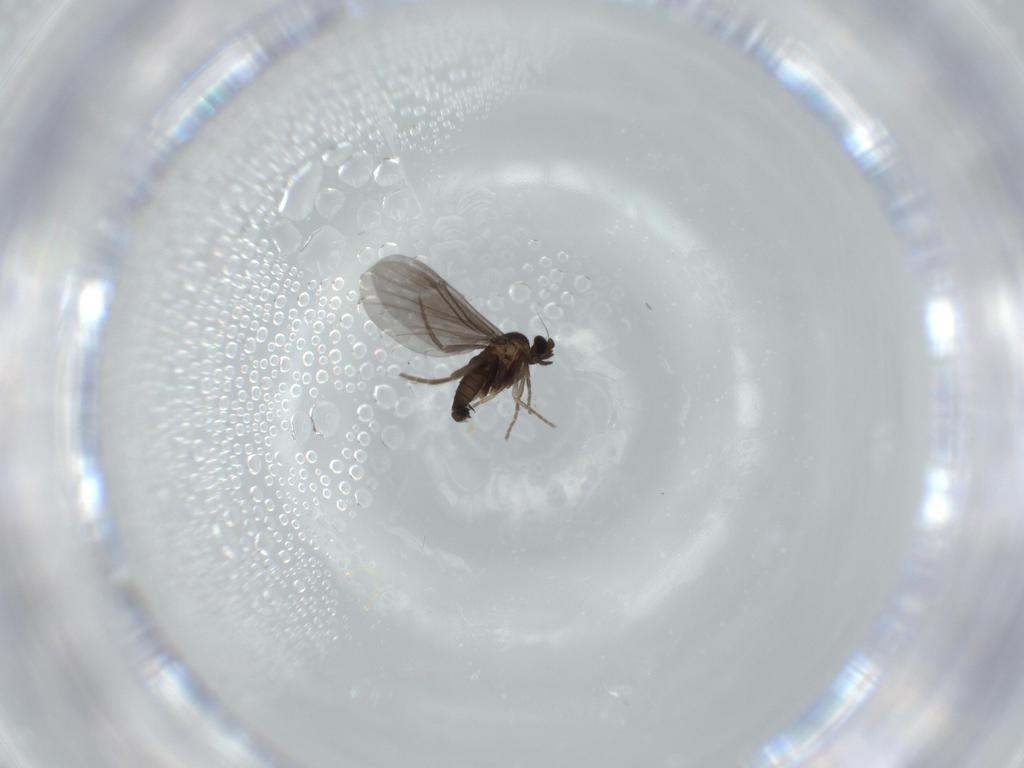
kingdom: Animalia
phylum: Arthropoda
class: Insecta
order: Diptera
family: Phoridae
